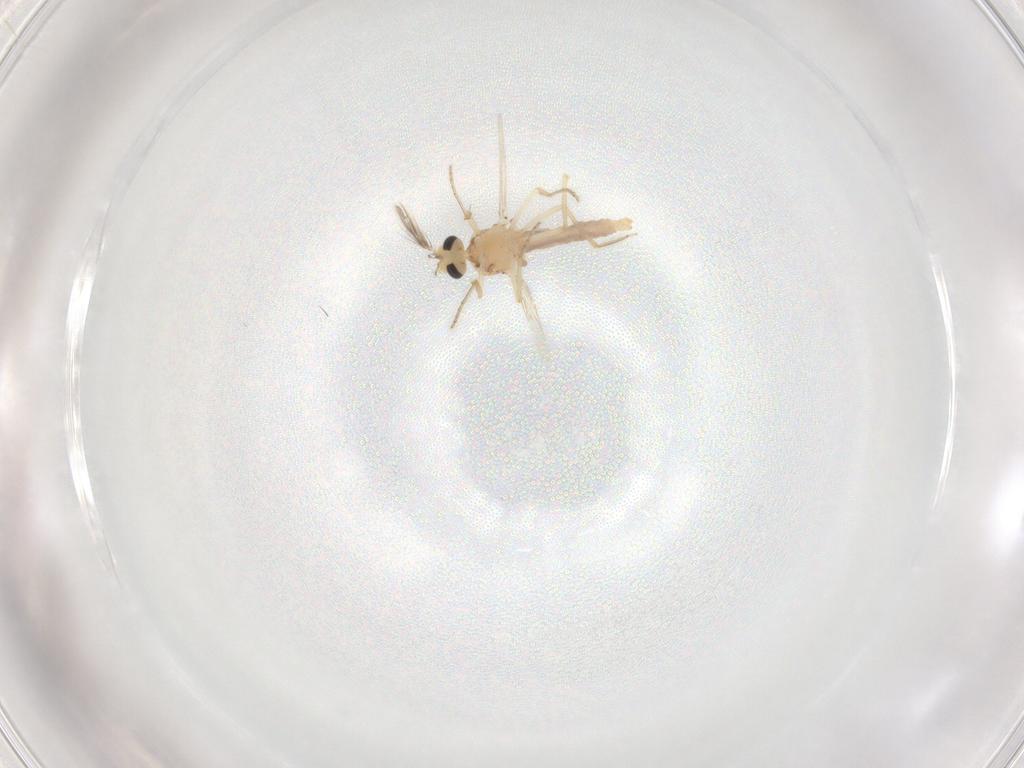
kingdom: Animalia
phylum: Arthropoda
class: Insecta
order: Diptera
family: Ceratopogonidae
